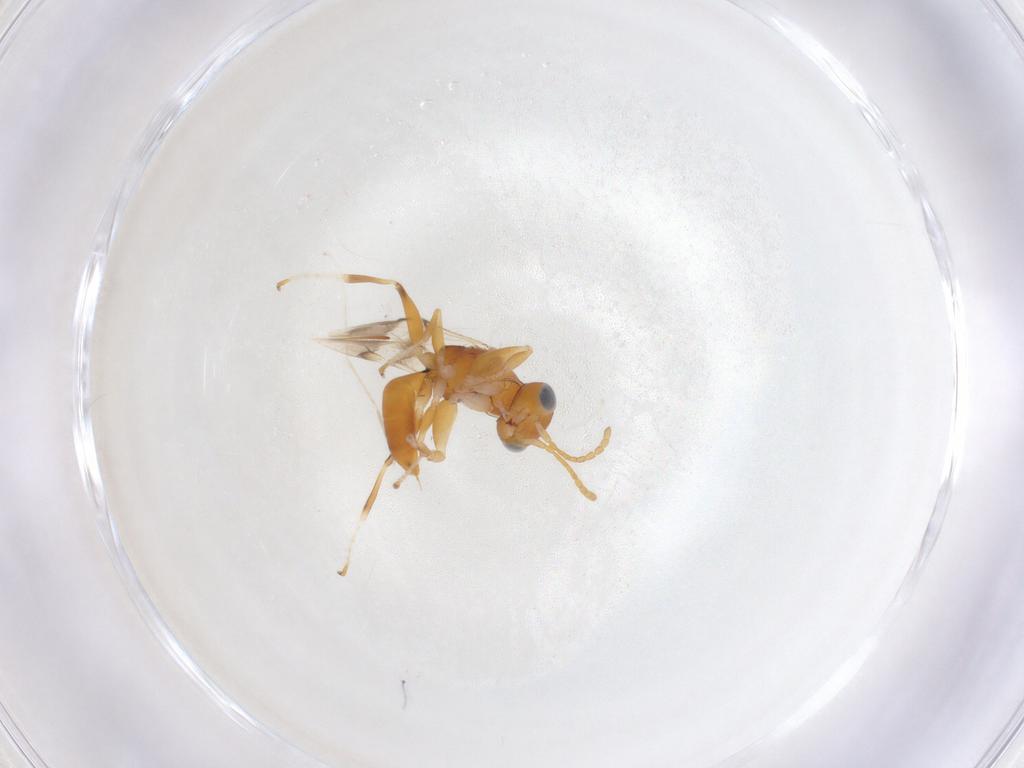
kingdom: Animalia
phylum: Arthropoda
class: Insecta
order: Hymenoptera
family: Dryinidae
